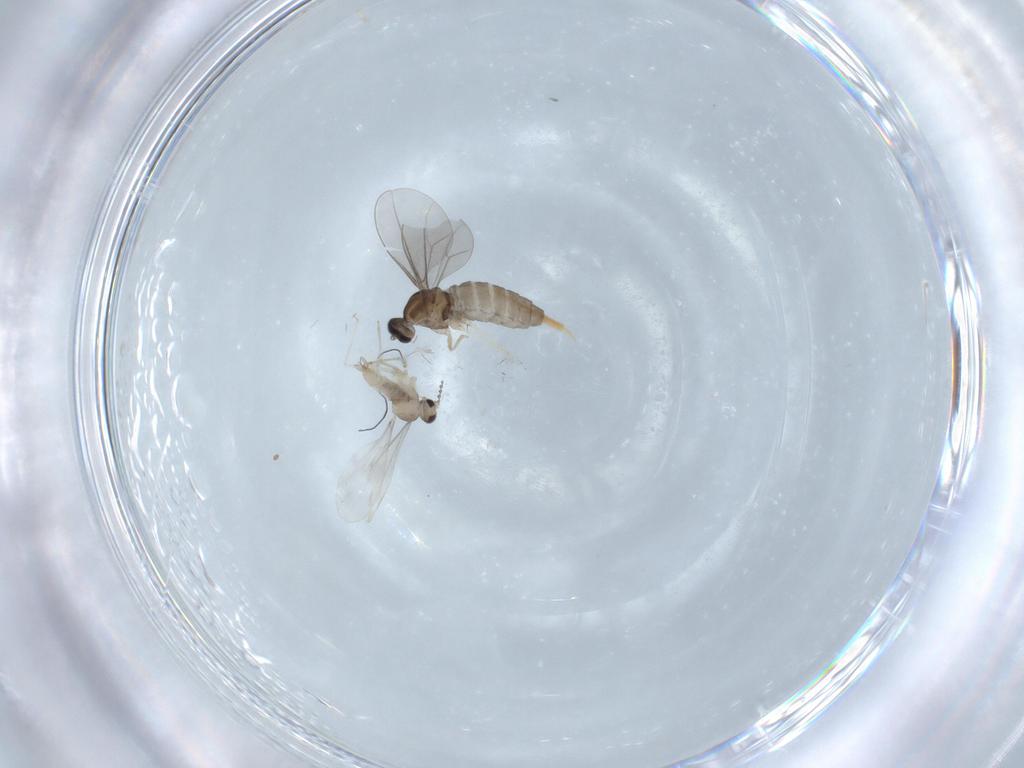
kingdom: Animalia
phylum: Arthropoda
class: Insecta
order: Diptera
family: Cecidomyiidae
